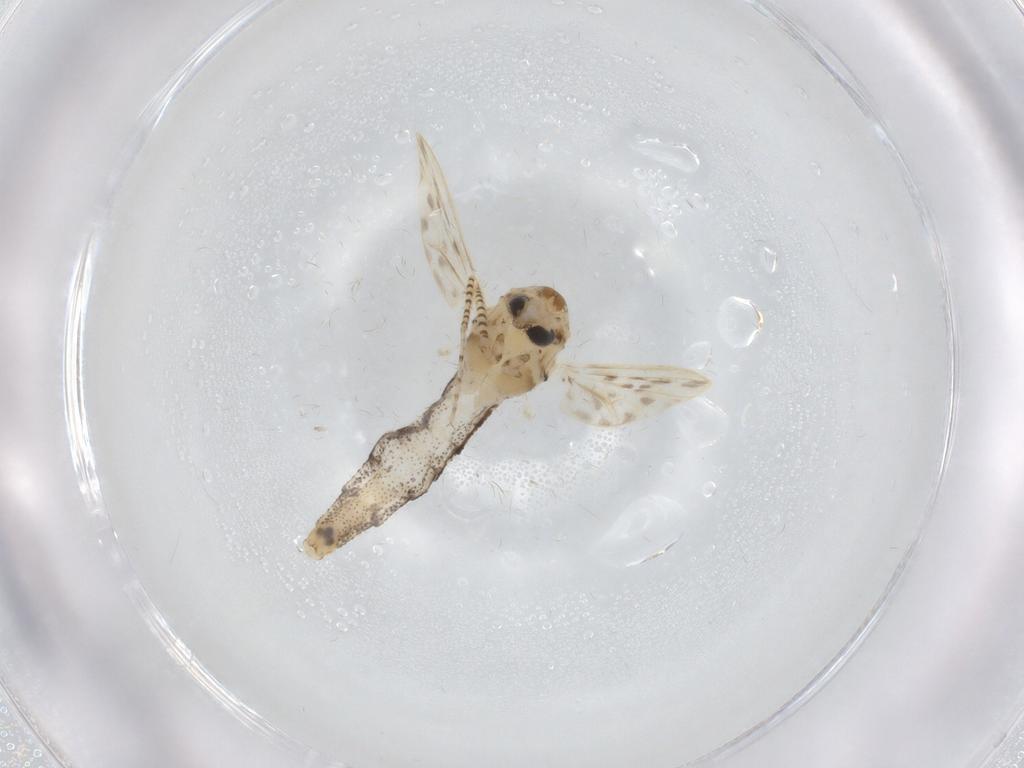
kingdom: Animalia
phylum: Arthropoda
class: Insecta
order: Diptera
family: Chaoboridae
